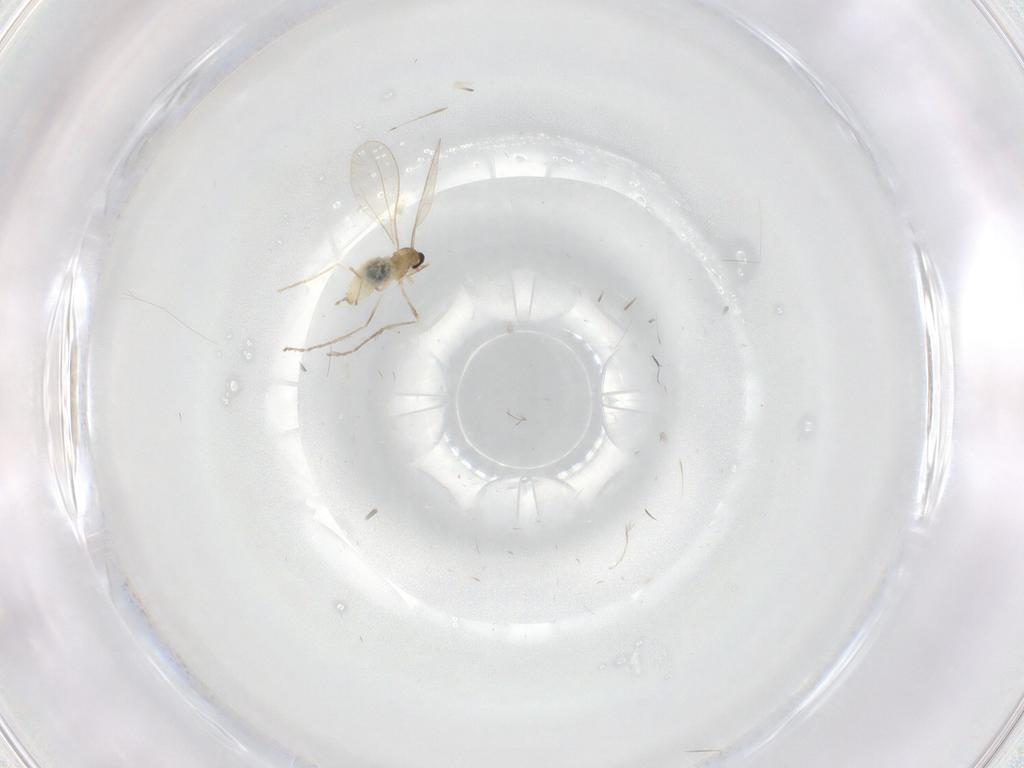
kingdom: Animalia
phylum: Arthropoda
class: Insecta
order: Diptera
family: Cecidomyiidae
